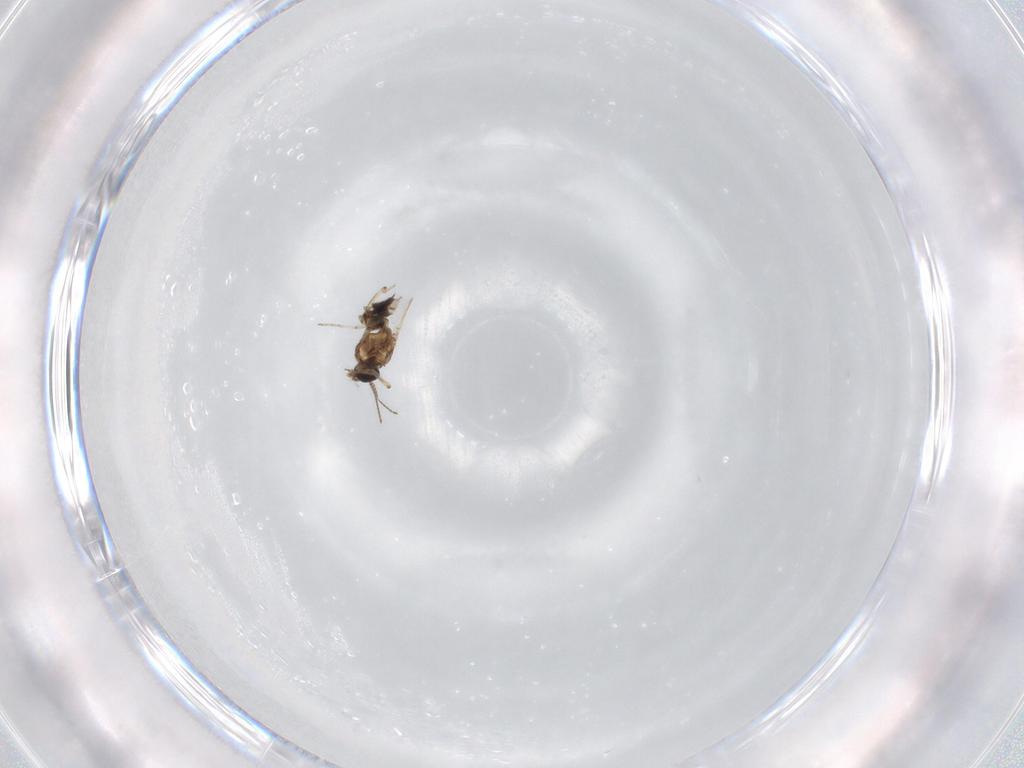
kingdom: Animalia
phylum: Arthropoda
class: Insecta
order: Diptera
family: Ceratopogonidae
